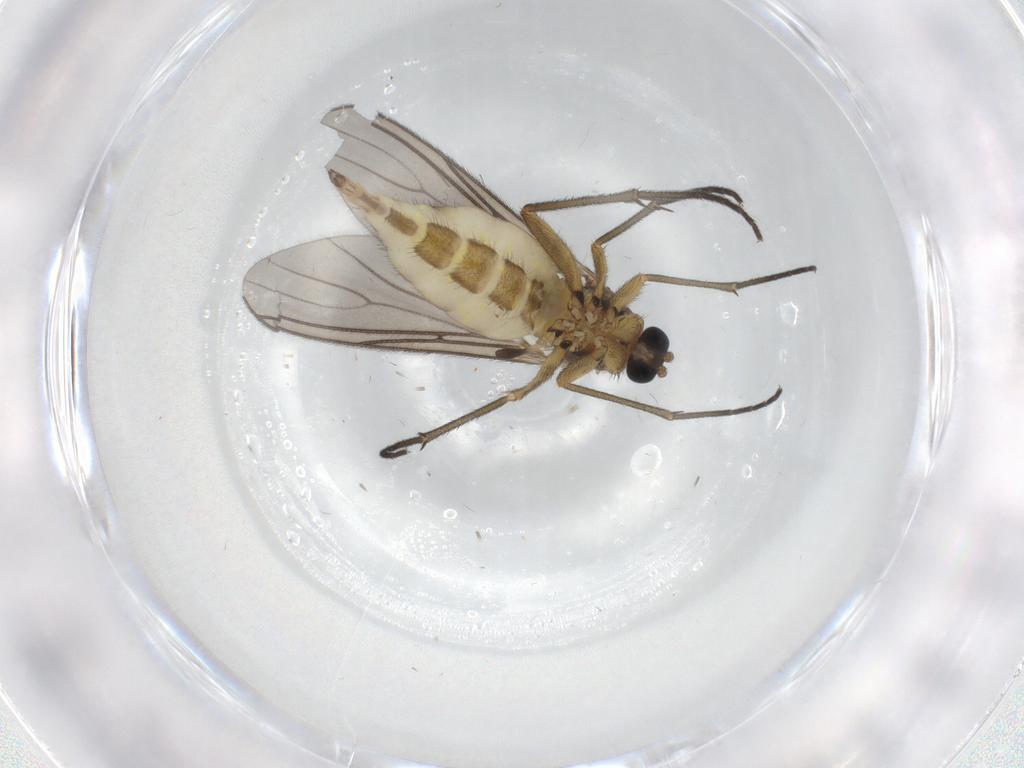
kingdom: Animalia
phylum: Arthropoda
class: Insecta
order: Diptera
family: Sciaridae
